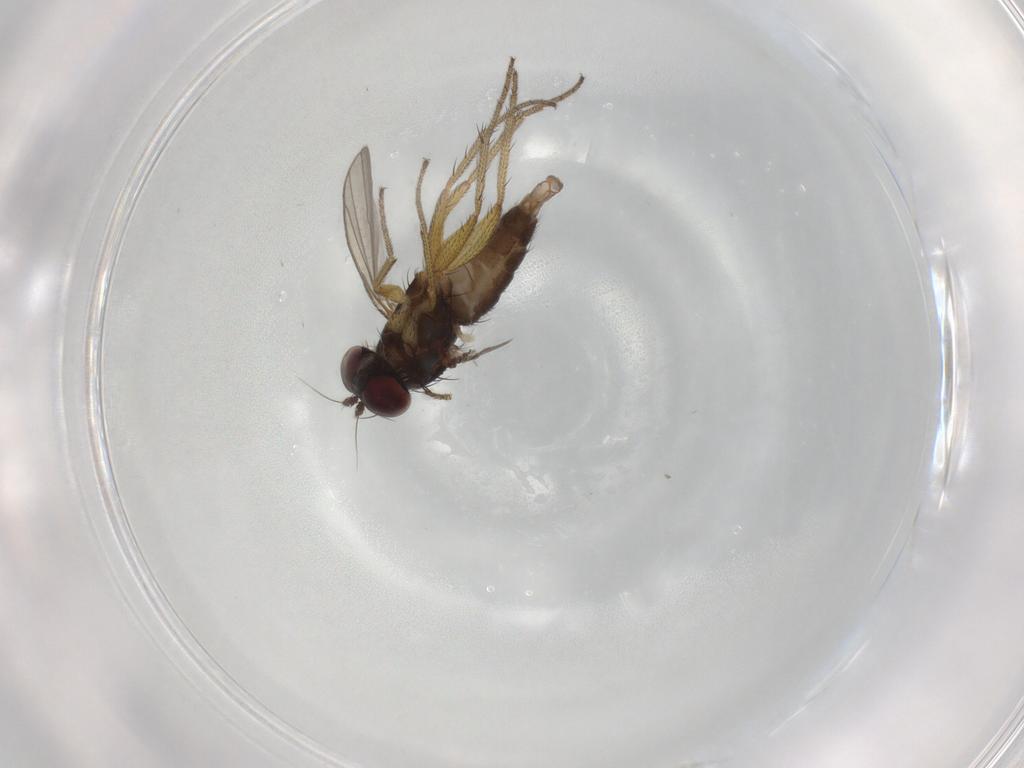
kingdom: Animalia
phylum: Arthropoda
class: Insecta
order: Diptera
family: Dolichopodidae
